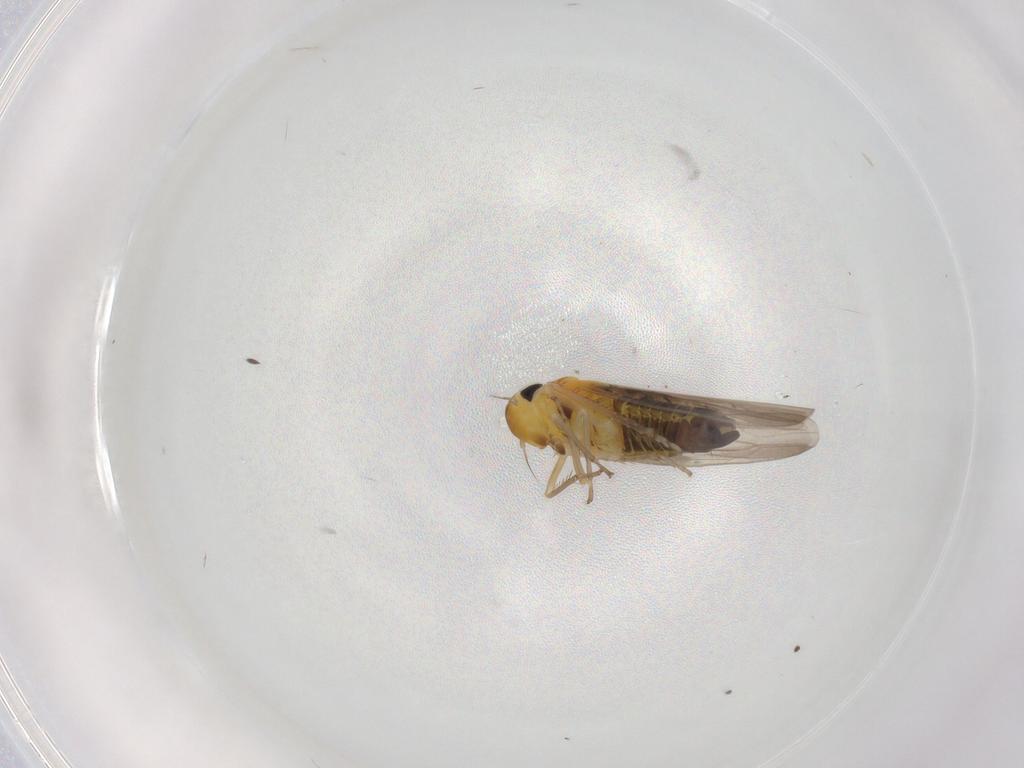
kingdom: Animalia
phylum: Arthropoda
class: Insecta
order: Hemiptera
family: Cicadellidae
